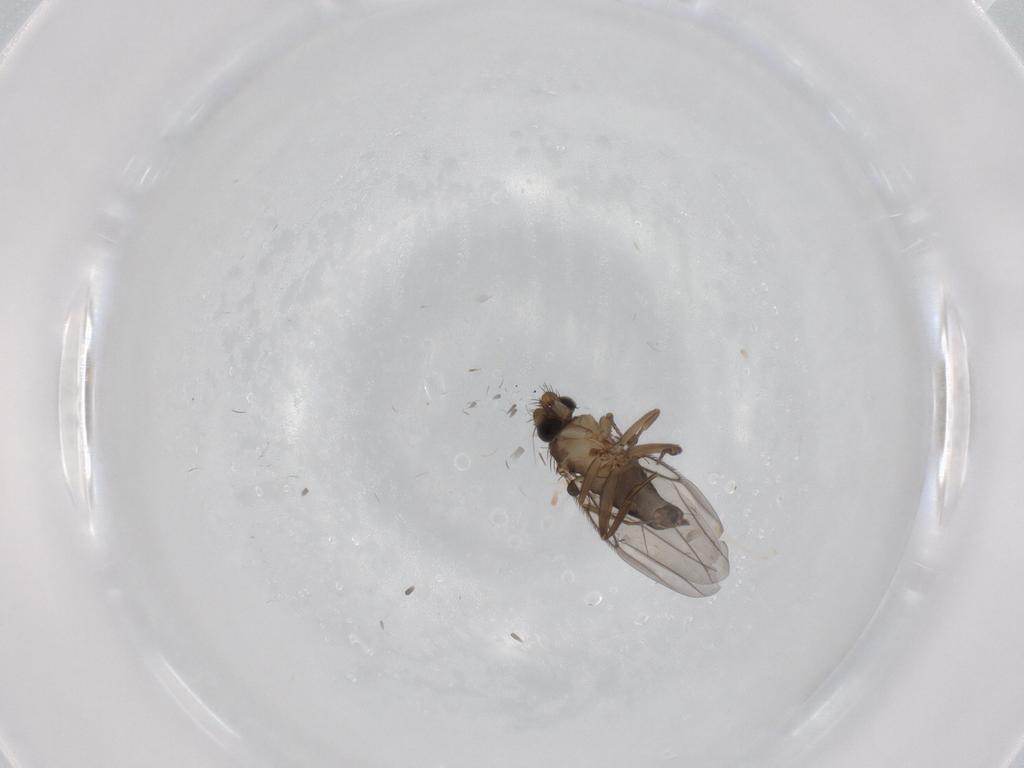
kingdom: Animalia
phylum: Arthropoda
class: Insecta
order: Diptera
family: Phoridae
